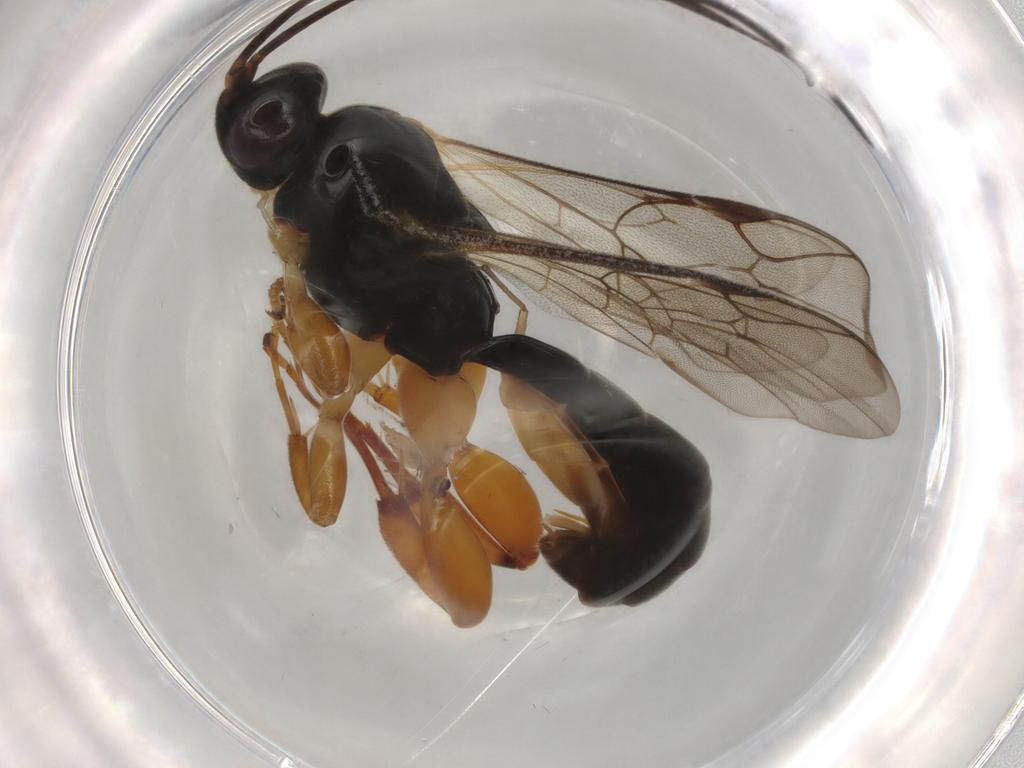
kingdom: Animalia
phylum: Arthropoda
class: Insecta
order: Hymenoptera
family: Ichneumonidae
